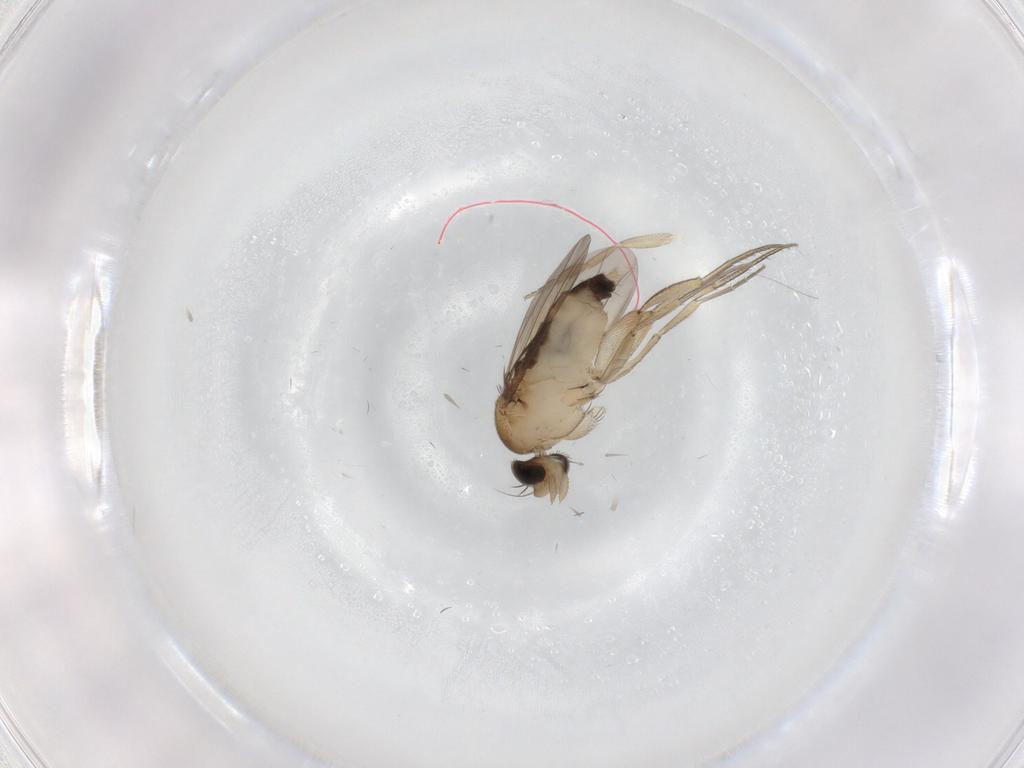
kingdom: Animalia
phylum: Arthropoda
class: Insecta
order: Diptera
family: Phoridae
